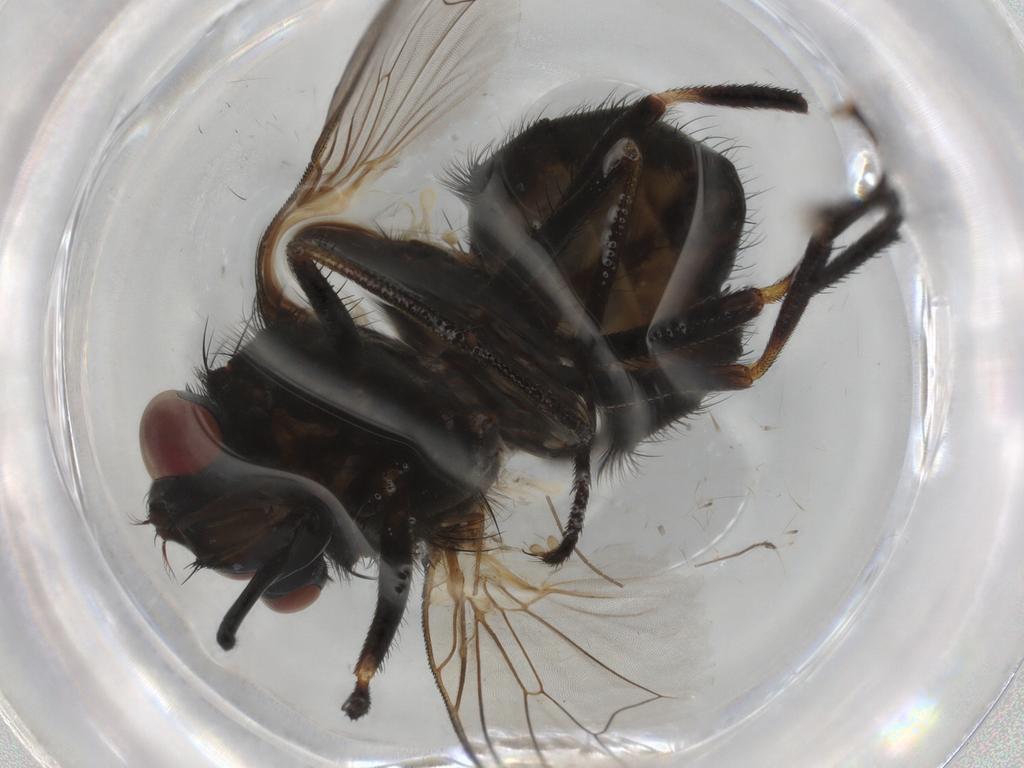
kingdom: Animalia
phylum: Arthropoda
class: Insecta
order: Diptera
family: Muscidae
